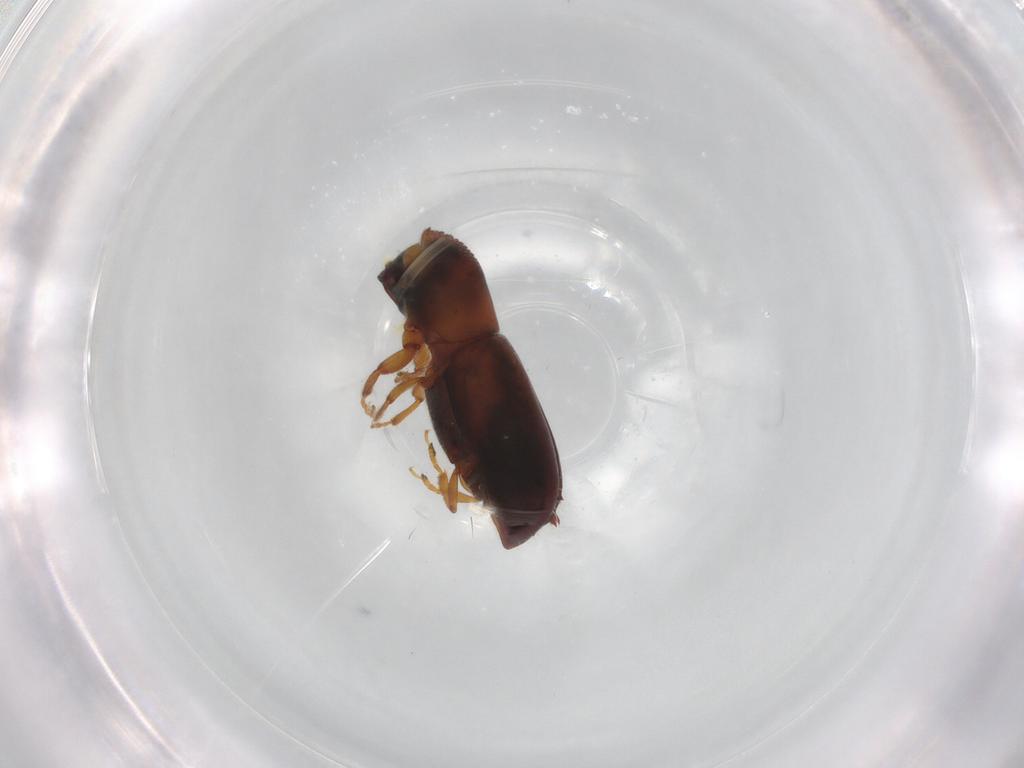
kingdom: Animalia
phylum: Arthropoda
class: Insecta
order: Coleoptera
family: Curculionidae
